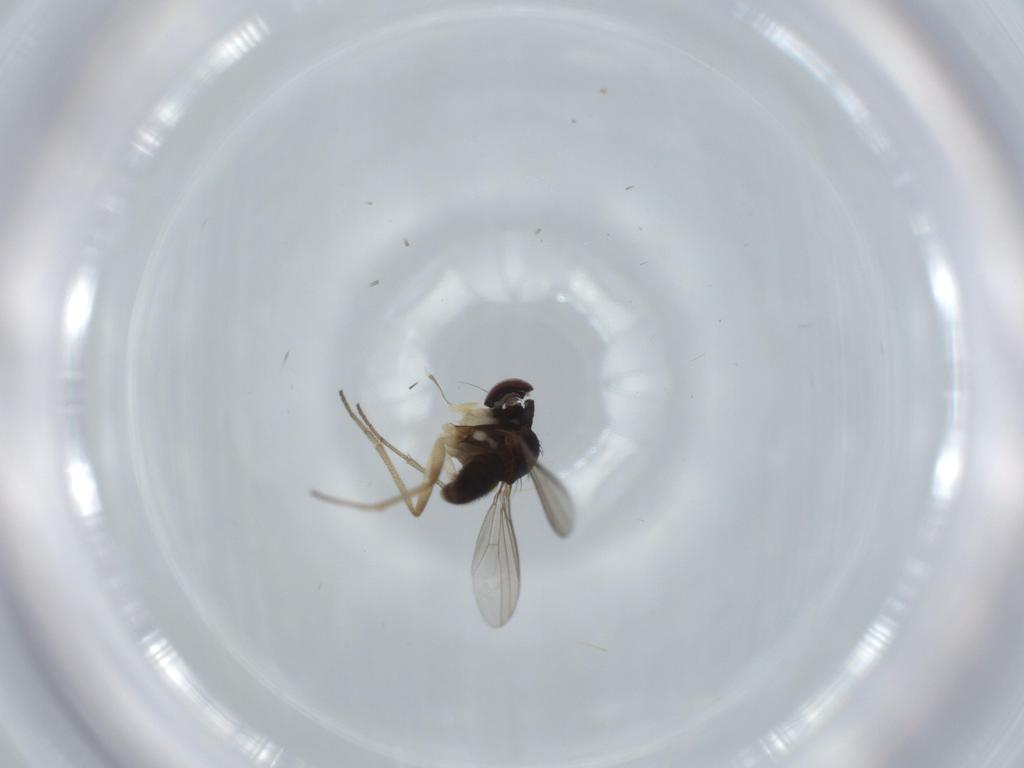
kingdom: Animalia
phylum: Arthropoda
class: Insecta
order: Diptera
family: Dolichopodidae
